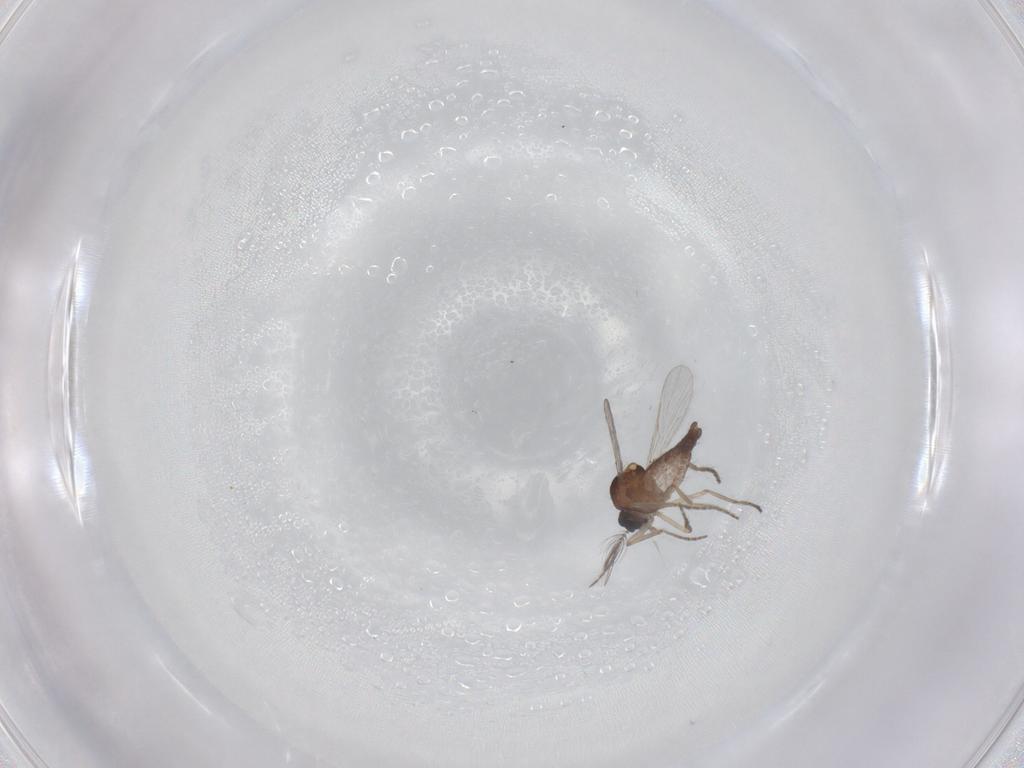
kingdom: Animalia
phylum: Arthropoda
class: Insecta
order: Diptera
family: Ceratopogonidae
